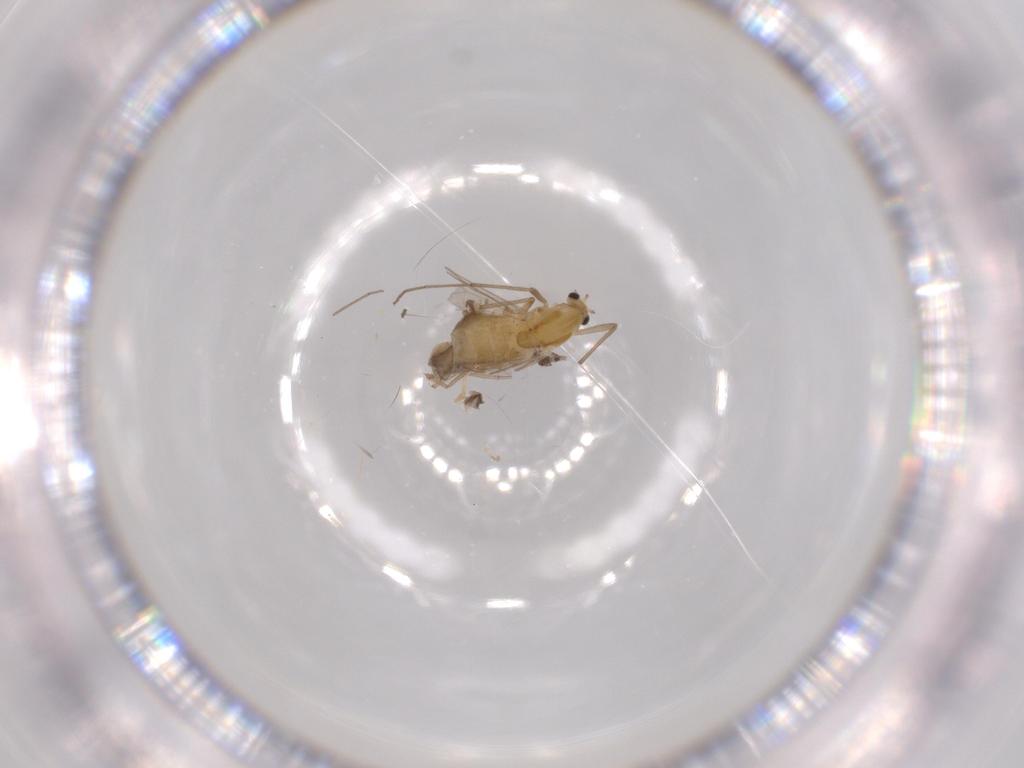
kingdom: Animalia
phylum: Arthropoda
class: Insecta
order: Diptera
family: Chironomidae
